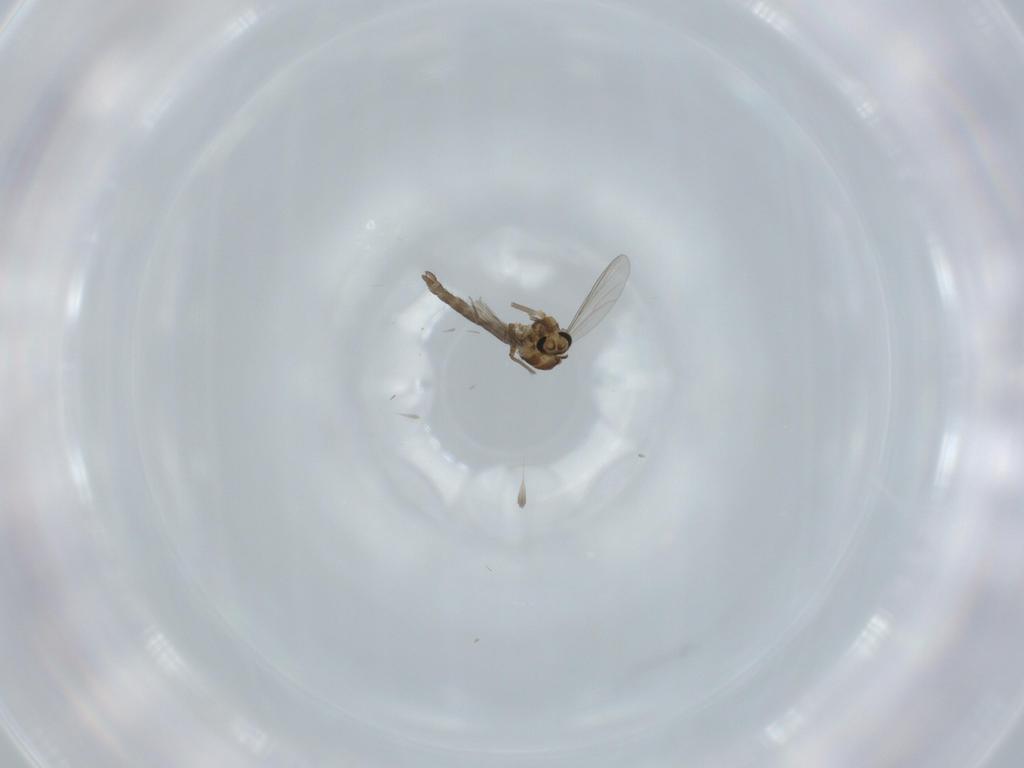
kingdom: Animalia
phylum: Arthropoda
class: Insecta
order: Diptera
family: Chironomidae
